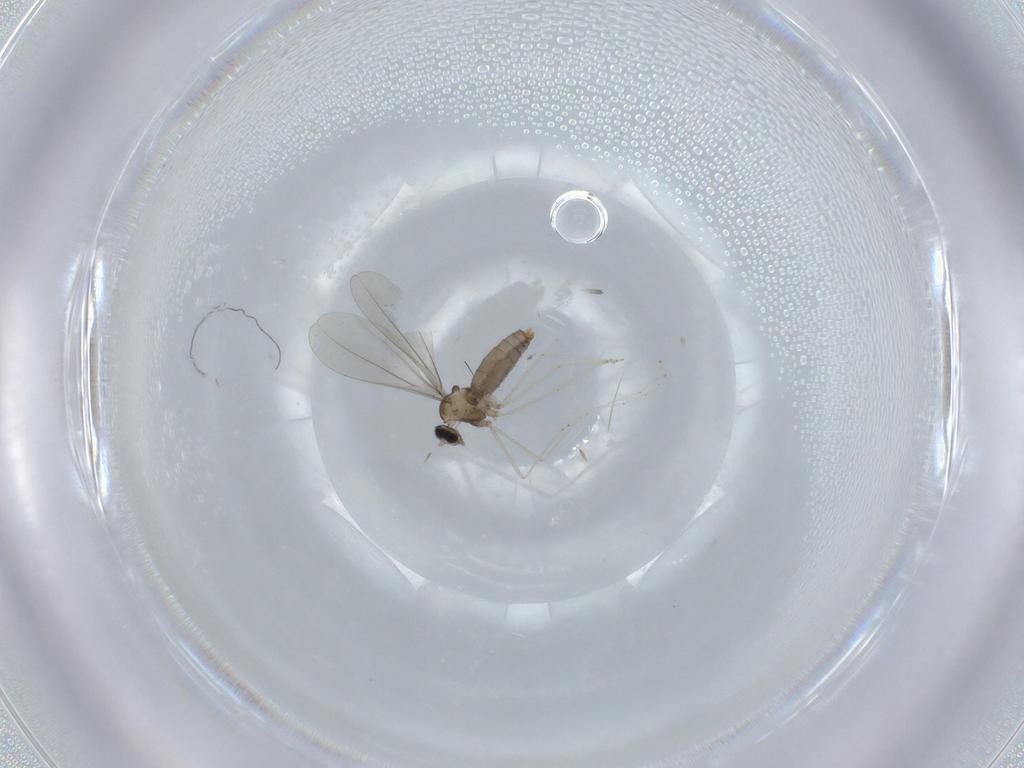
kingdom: Animalia
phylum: Arthropoda
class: Insecta
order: Diptera
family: Cecidomyiidae
